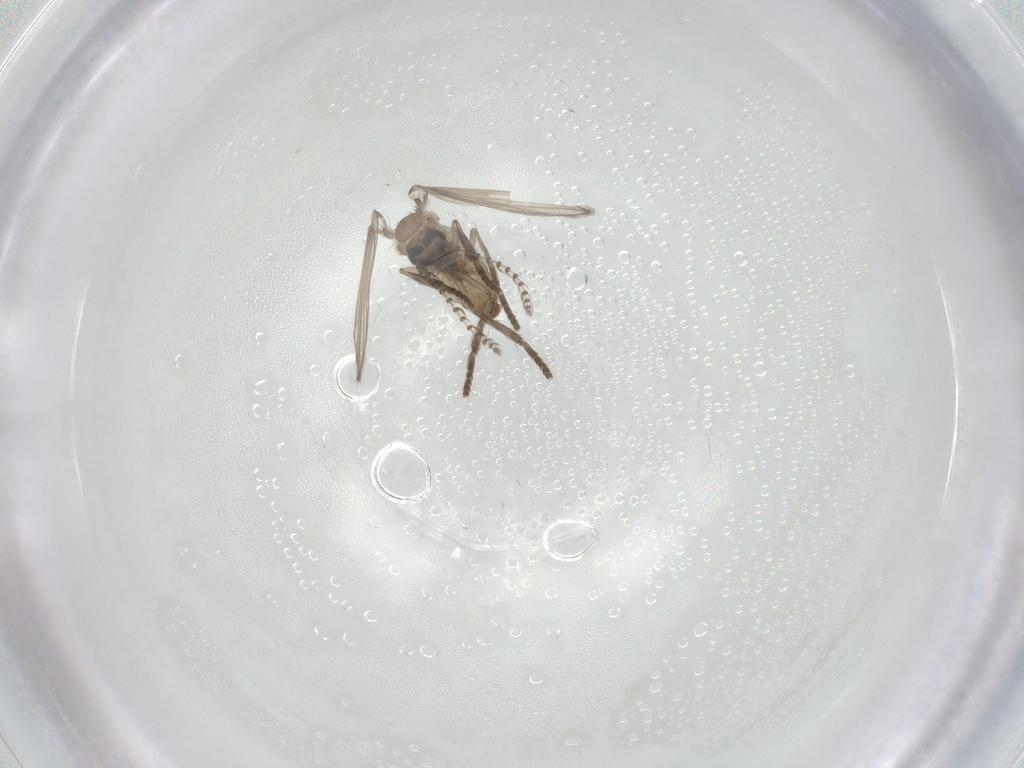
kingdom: Animalia
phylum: Arthropoda
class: Insecta
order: Diptera
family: Psychodidae
